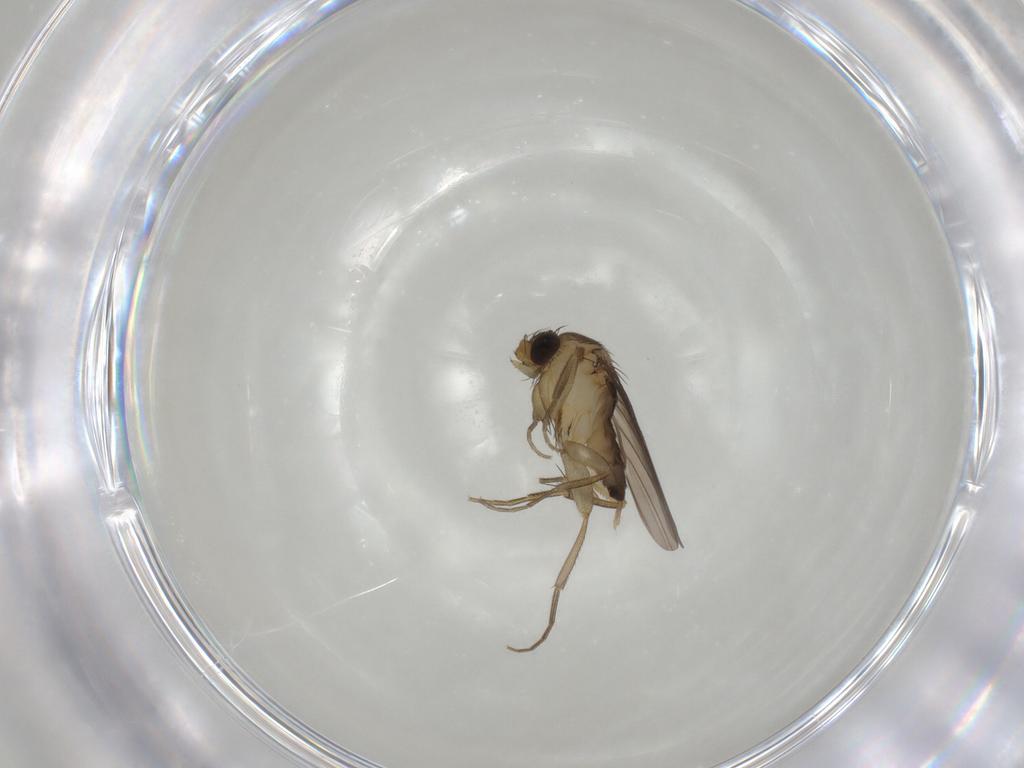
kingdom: Animalia
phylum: Arthropoda
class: Insecta
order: Diptera
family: Phoridae
